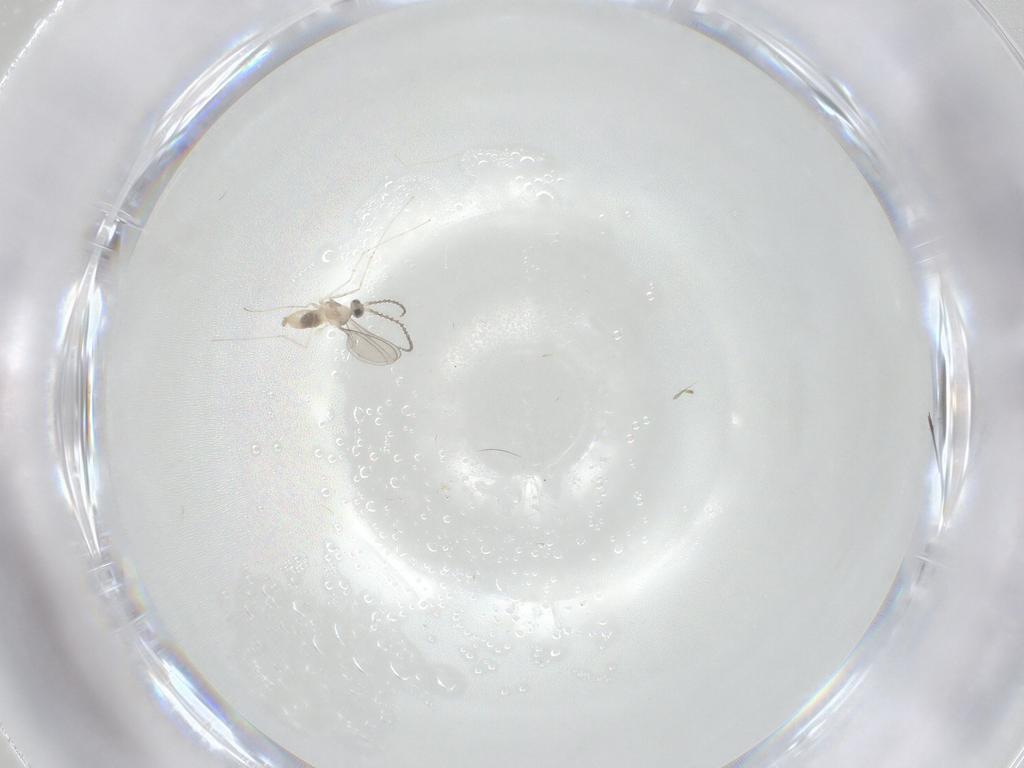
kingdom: Animalia
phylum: Arthropoda
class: Insecta
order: Diptera
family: Cecidomyiidae
